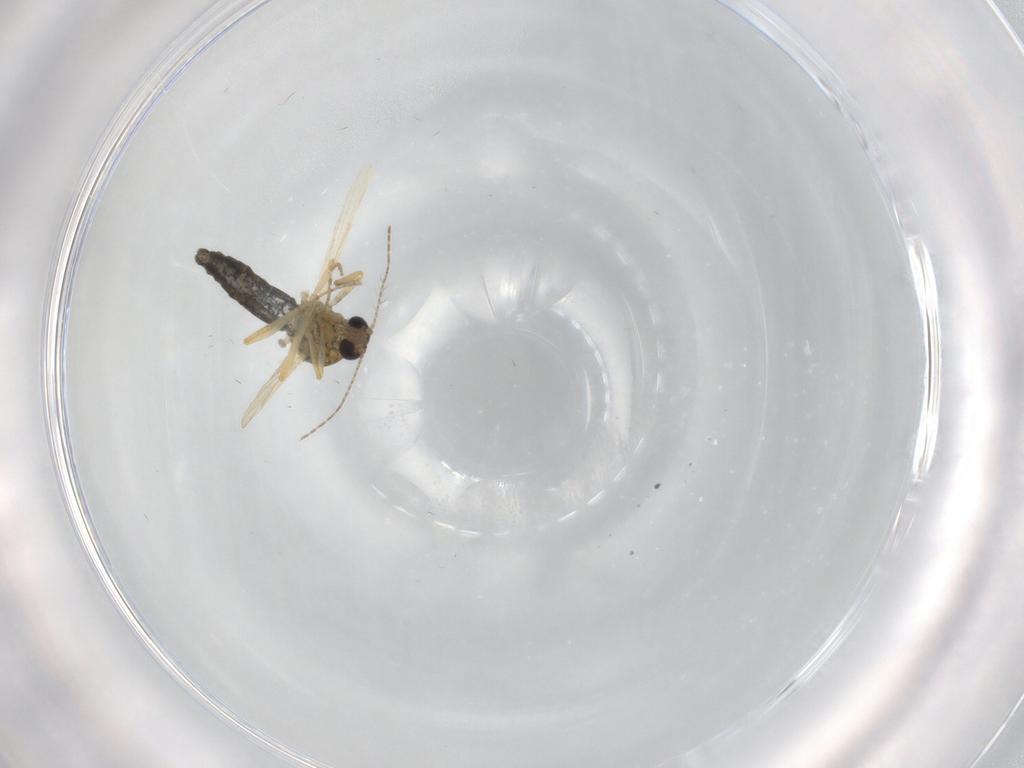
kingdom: Animalia
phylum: Arthropoda
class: Insecta
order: Diptera
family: Ceratopogonidae
